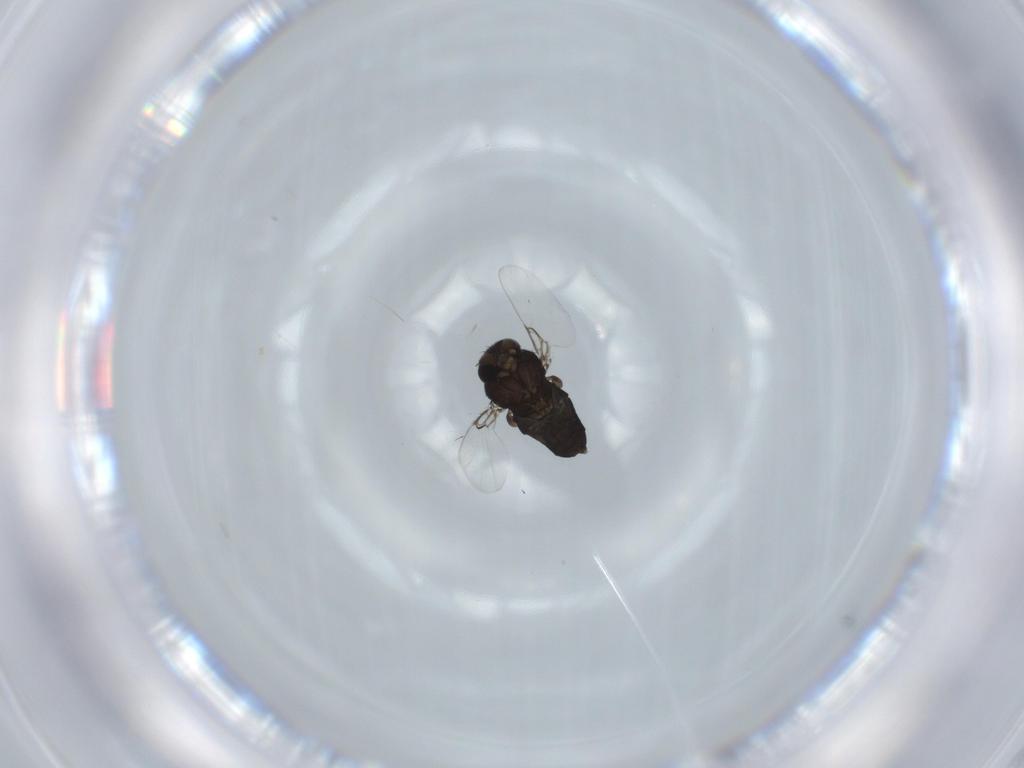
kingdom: Animalia
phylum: Arthropoda
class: Insecta
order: Diptera
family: Phoridae
